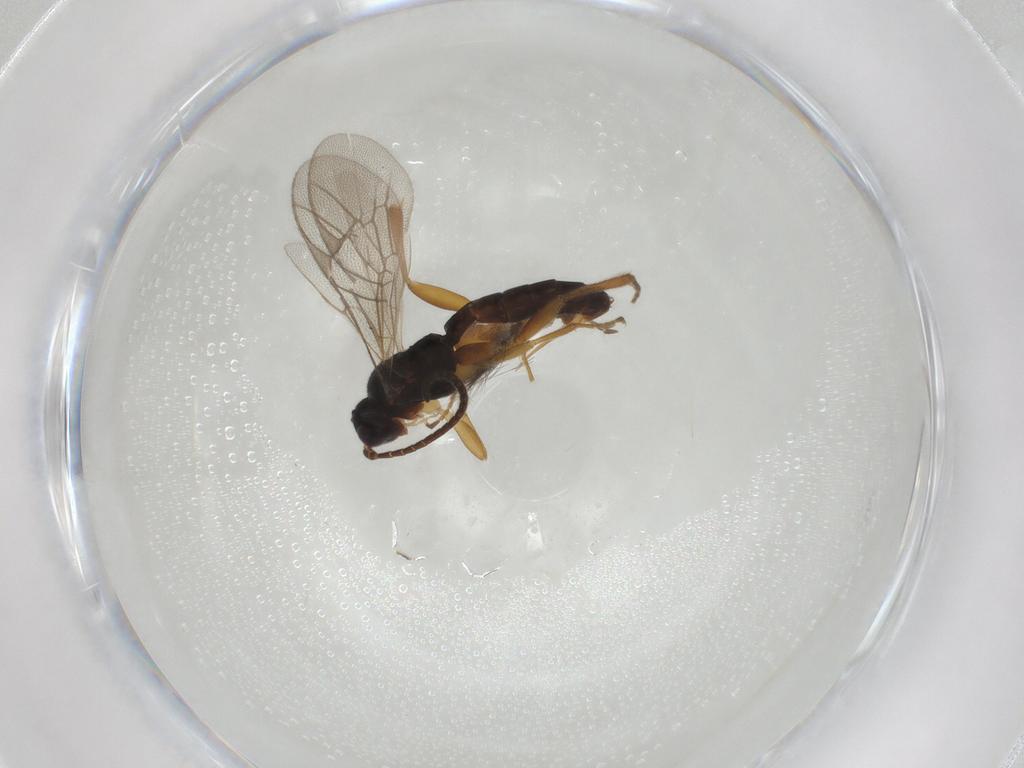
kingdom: Animalia
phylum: Arthropoda
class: Insecta
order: Hymenoptera
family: Ichneumonidae
